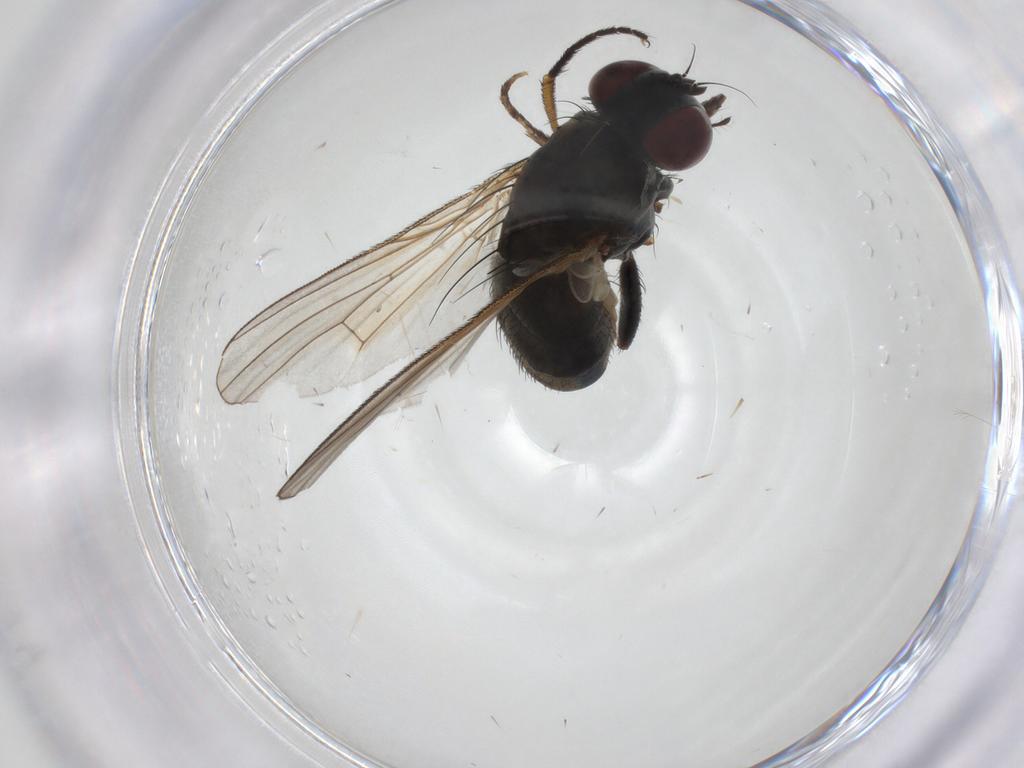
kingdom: Animalia
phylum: Arthropoda
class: Insecta
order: Diptera
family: Muscidae
